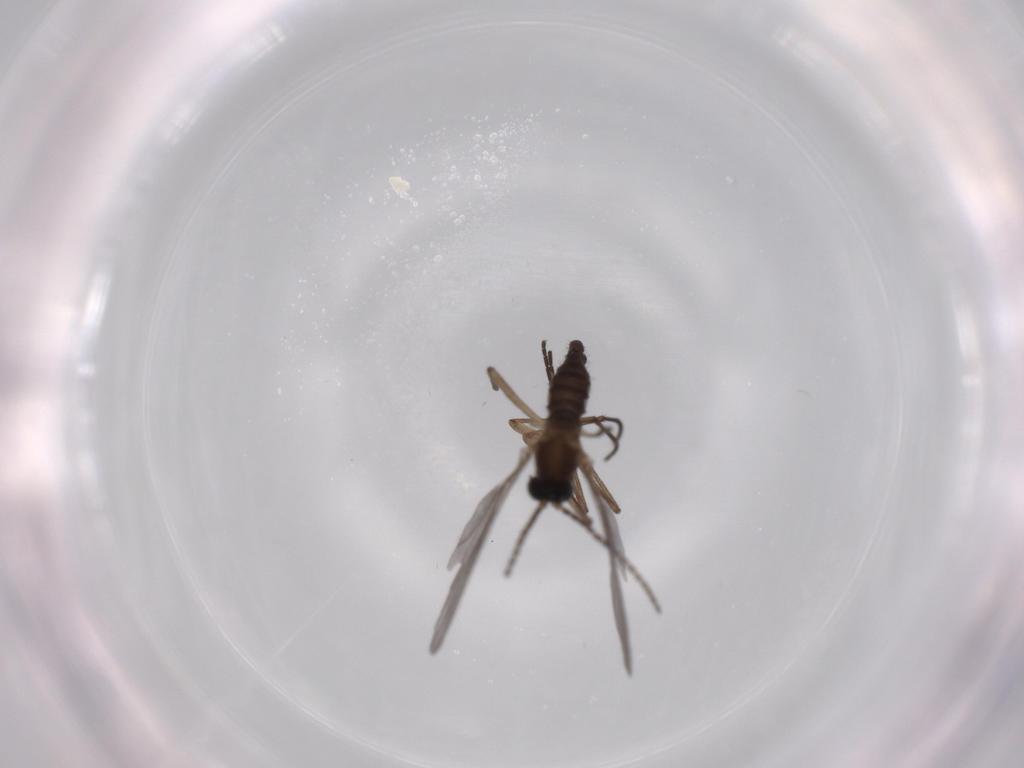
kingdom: Animalia
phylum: Arthropoda
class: Insecta
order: Diptera
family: Sciaridae
